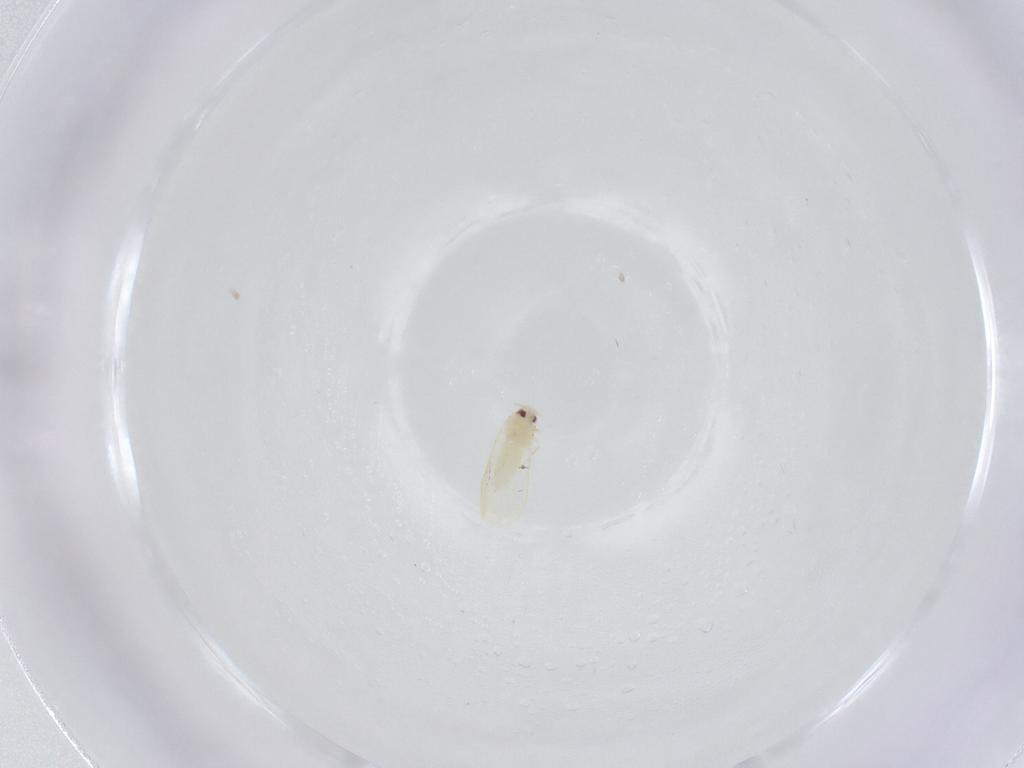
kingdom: Animalia
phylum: Arthropoda
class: Insecta
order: Hemiptera
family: Aleyrodidae
